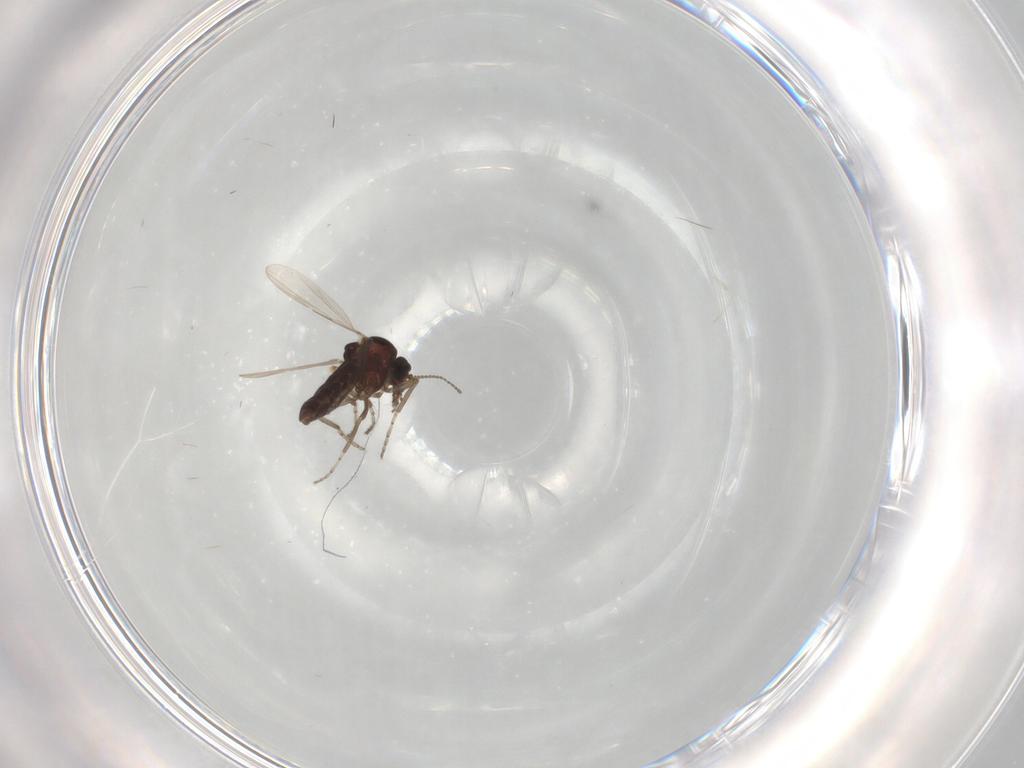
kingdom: Animalia
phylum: Arthropoda
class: Insecta
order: Diptera
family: Ceratopogonidae
